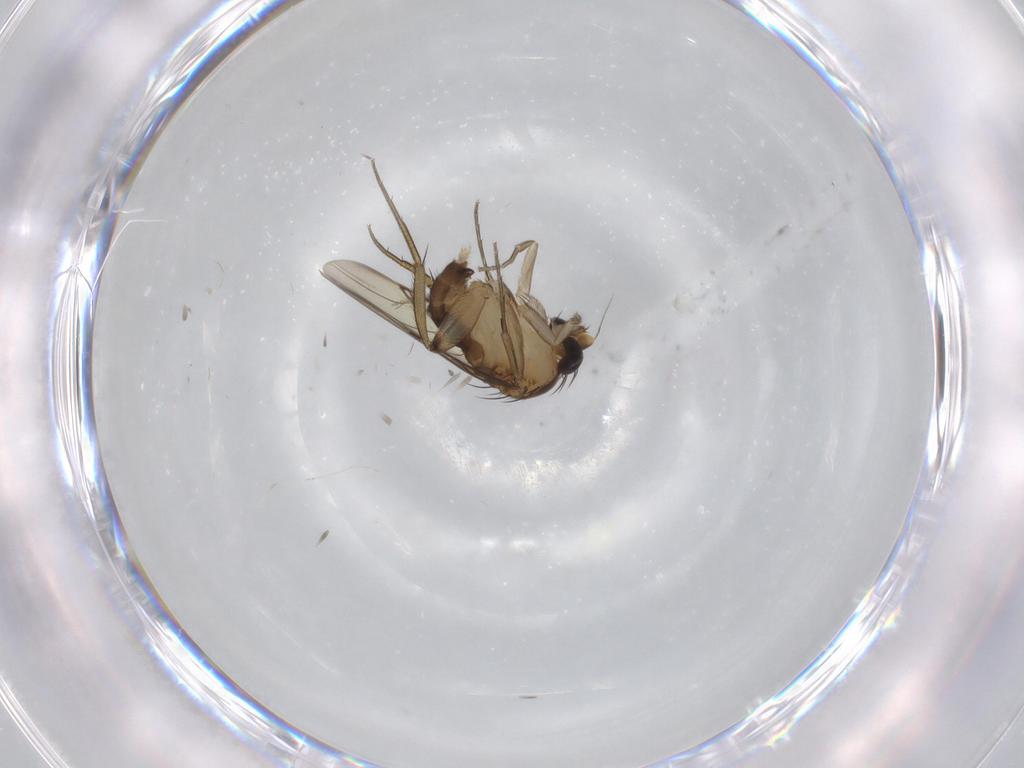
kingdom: Animalia
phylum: Arthropoda
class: Insecta
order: Diptera
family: Phoridae
